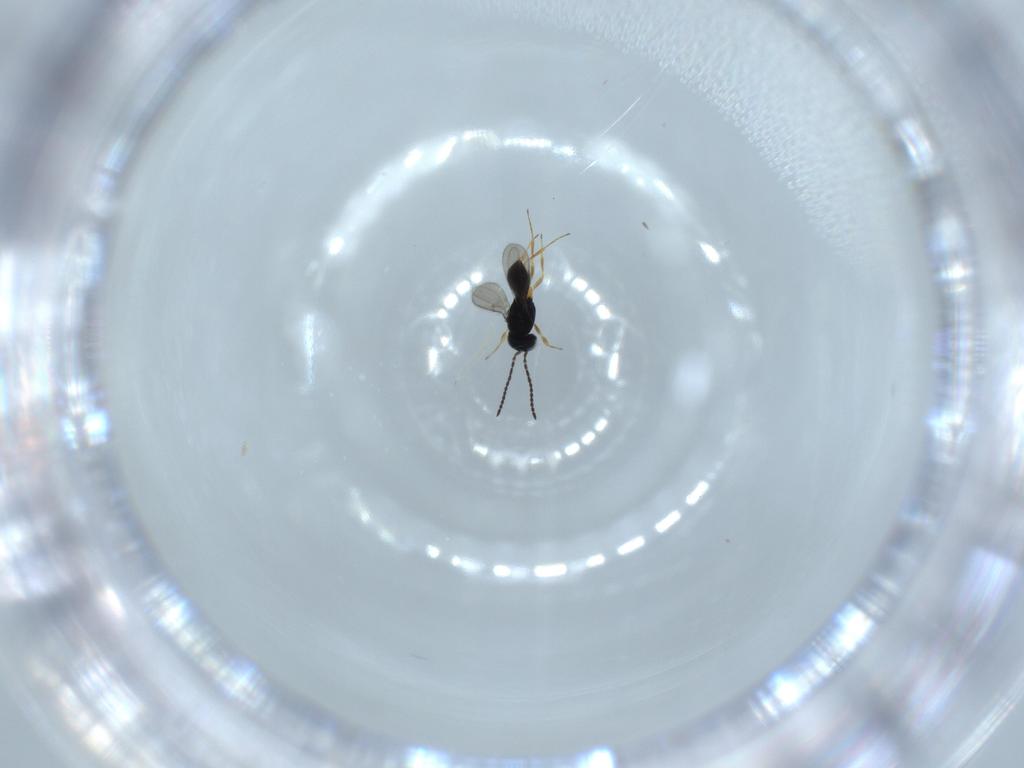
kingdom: Animalia
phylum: Arthropoda
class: Insecta
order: Hymenoptera
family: Scelionidae
